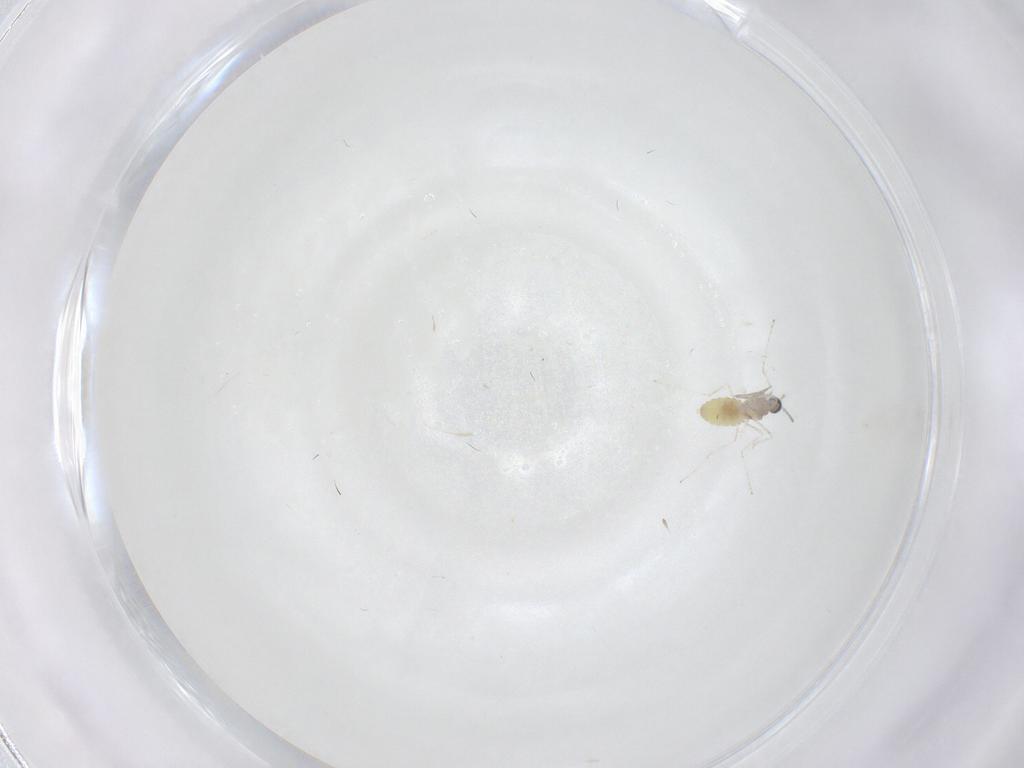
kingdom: Animalia
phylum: Arthropoda
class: Insecta
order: Diptera
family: Cecidomyiidae
